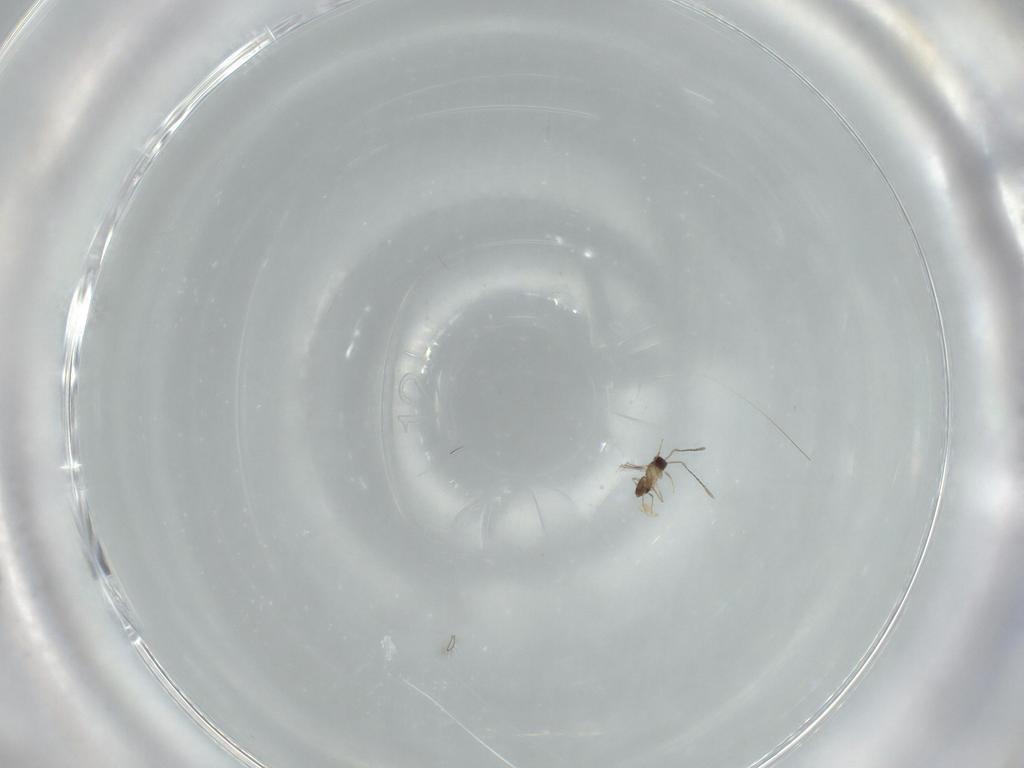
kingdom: Animalia
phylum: Arthropoda
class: Insecta
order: Hymenoptera
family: Mymaridae
